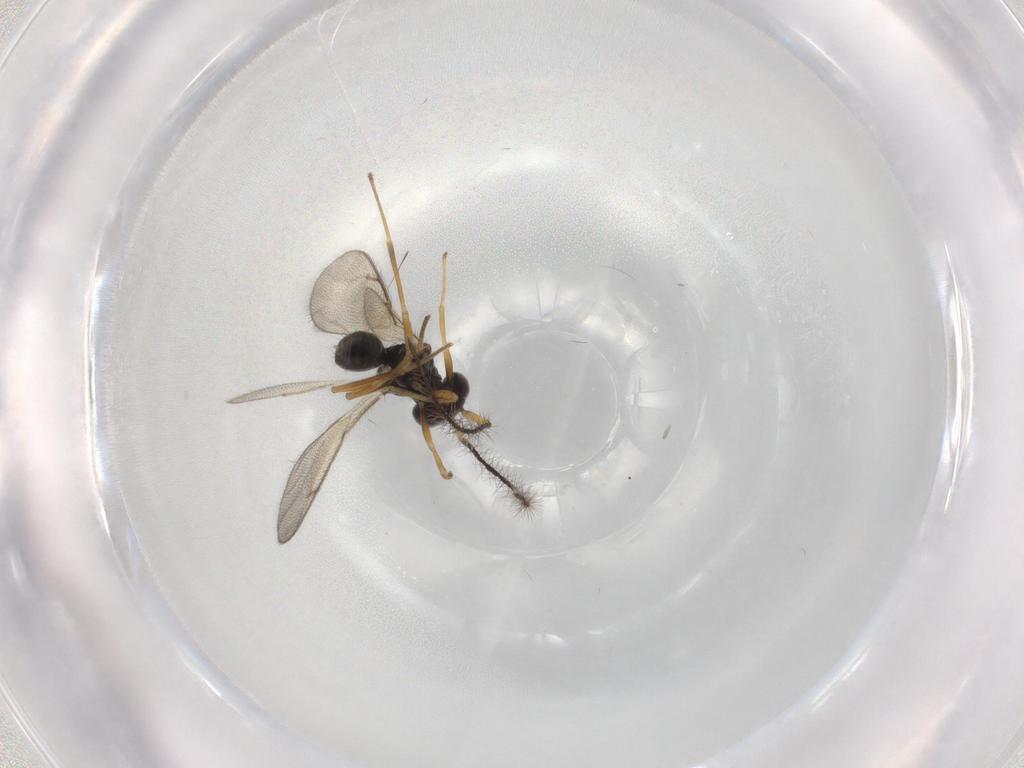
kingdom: Animalia
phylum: Arthropoda
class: Insecta
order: Hymenoptera
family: Diparidae
